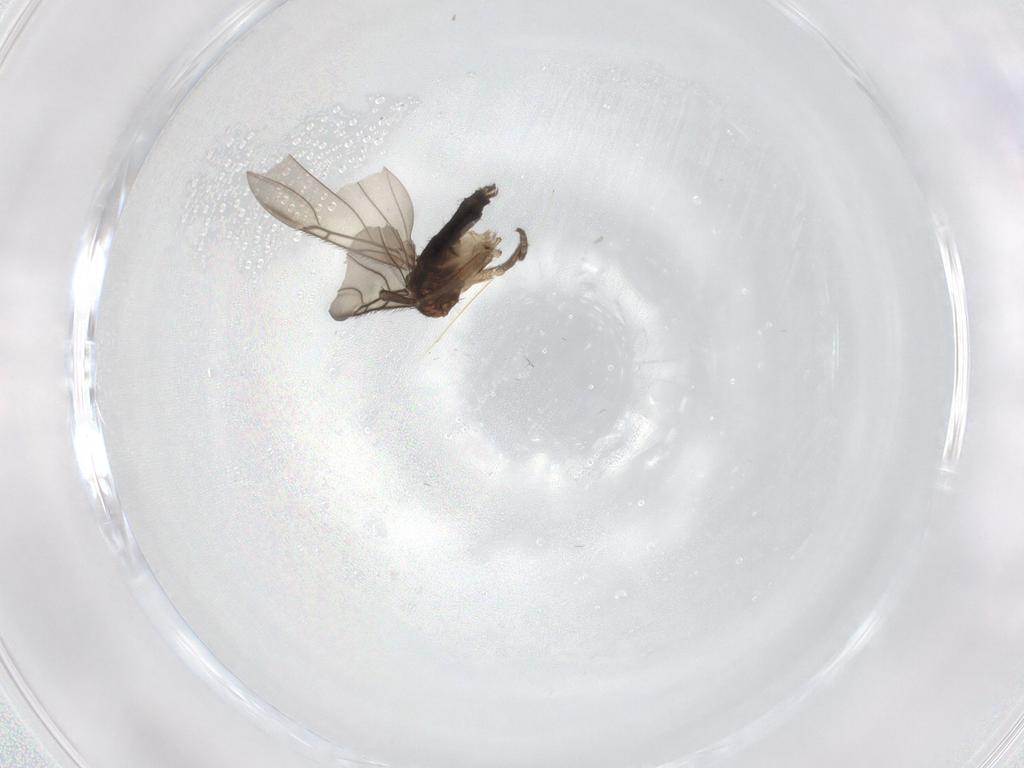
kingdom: Animalia
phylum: Arthropoda
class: Insecta
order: Diptera
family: Phoridae
